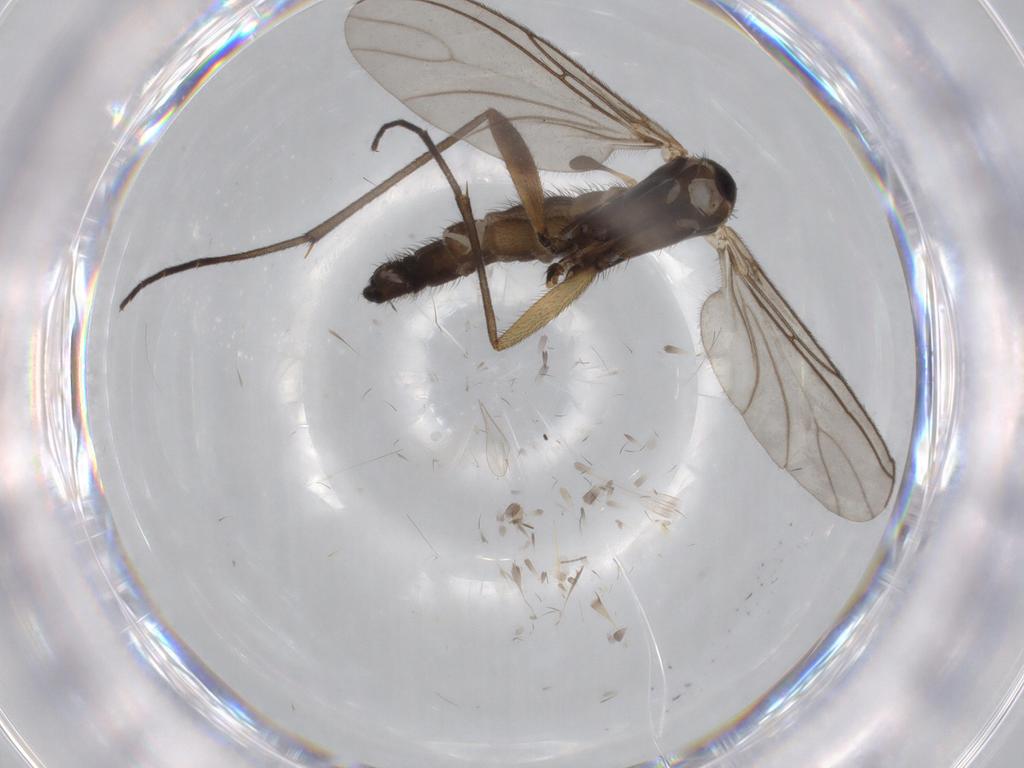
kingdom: Animalia
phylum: Arthropoda
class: Insecta
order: Diptera
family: Sciaridae
